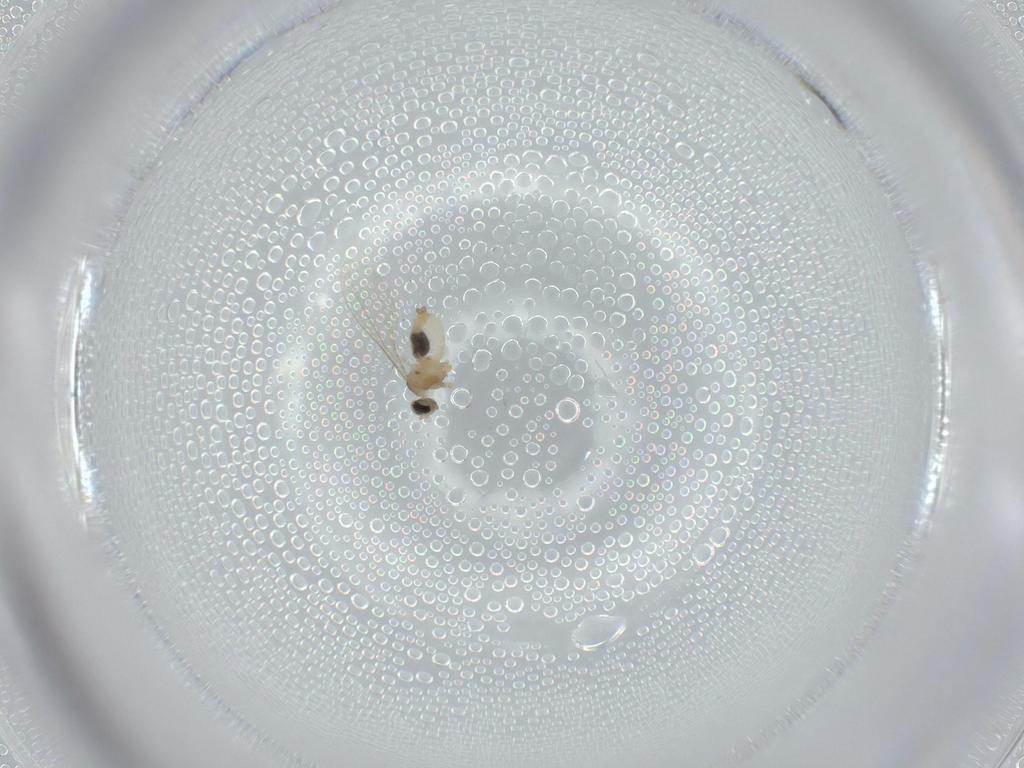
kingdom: Animalia
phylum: Arthropoda
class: Insecta
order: Diptera
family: Cecidomyiidae
